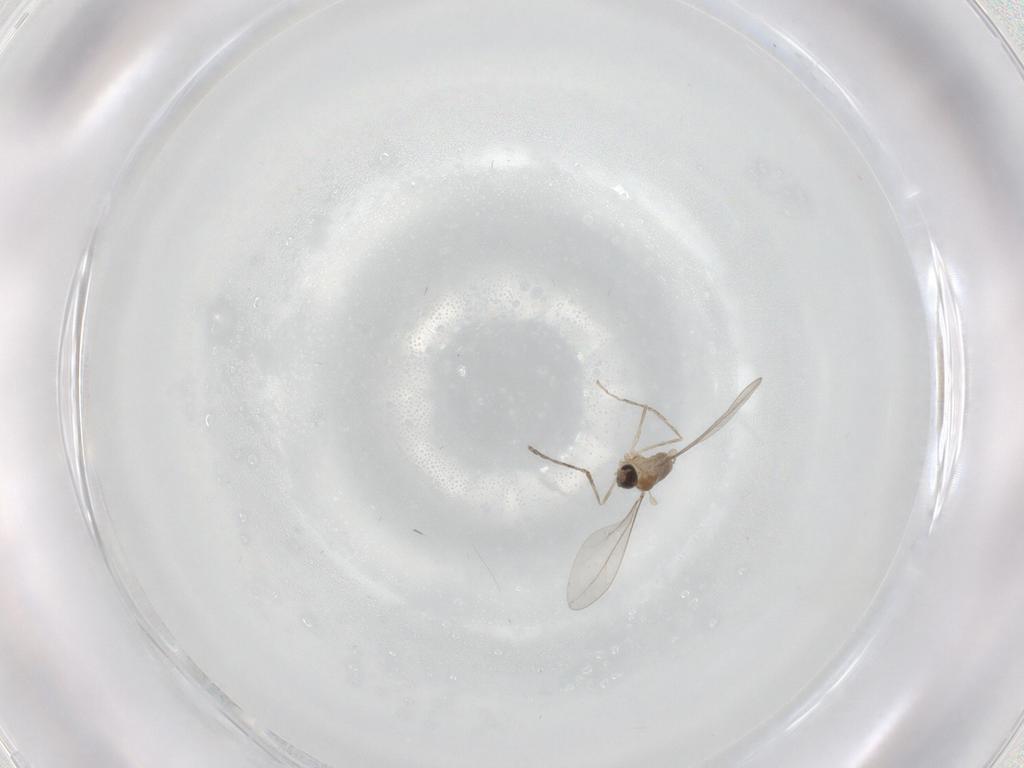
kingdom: Animalia
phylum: Arthropoda
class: Insecta
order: Diptera
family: Cecidomyiidae
